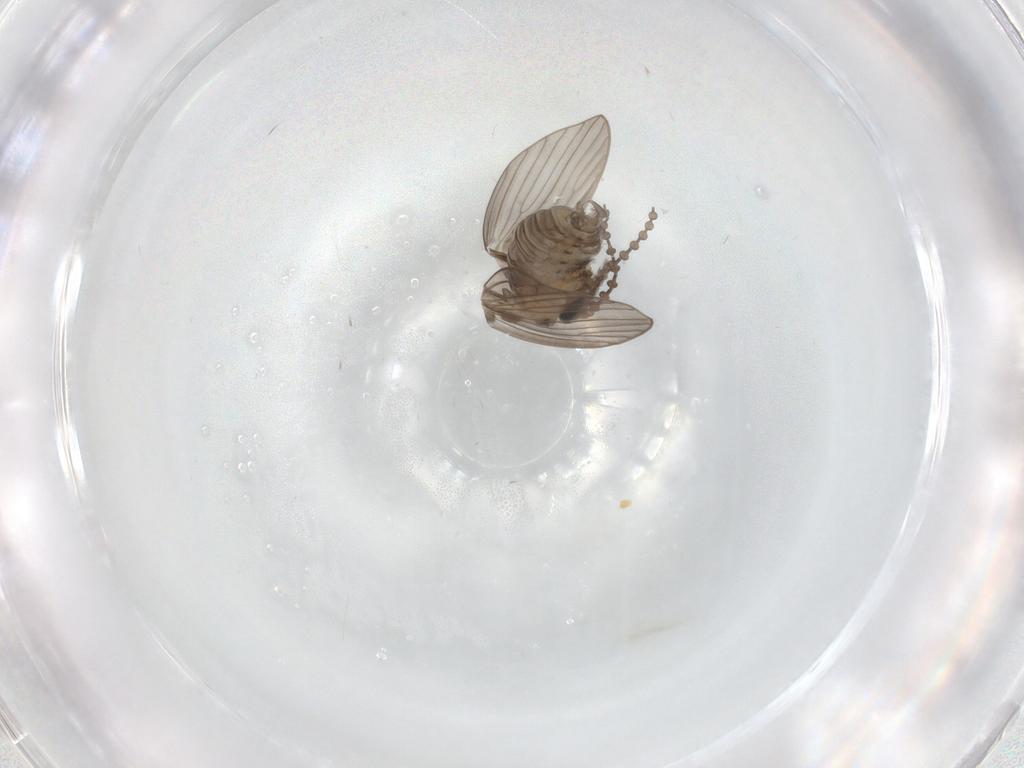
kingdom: Animalia
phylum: Arthropoda
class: Insecta
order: Diptera
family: Psychodidae
